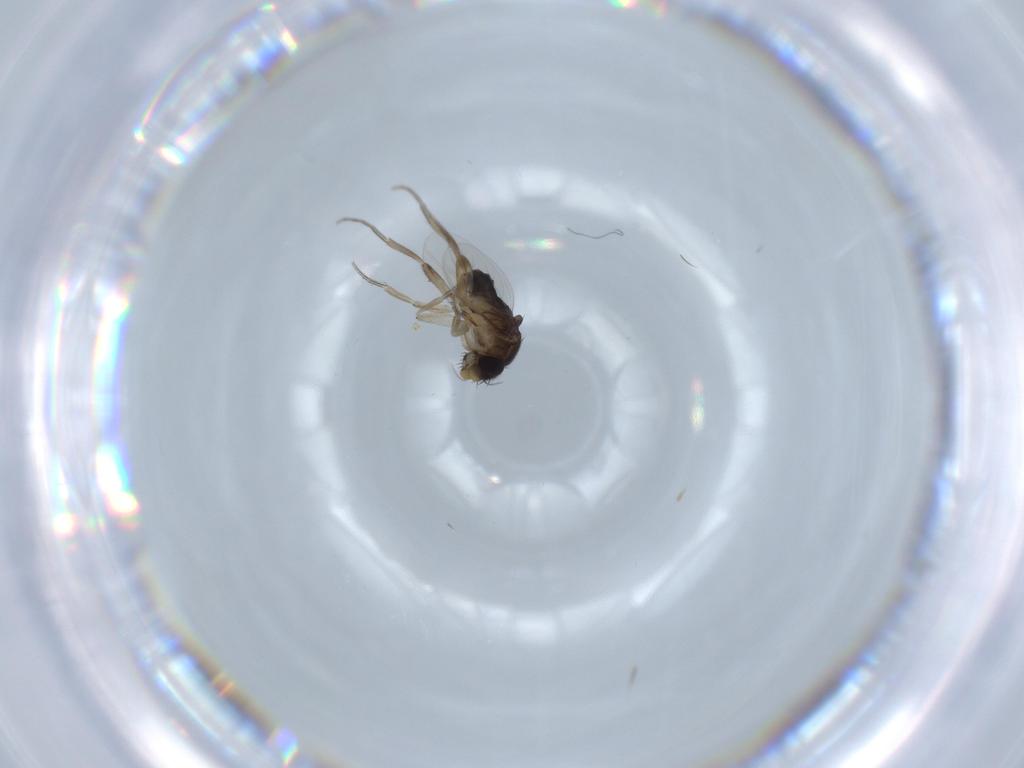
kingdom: Animalia
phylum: Arthropoda
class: Insecta
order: Diptera
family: Phoridae
